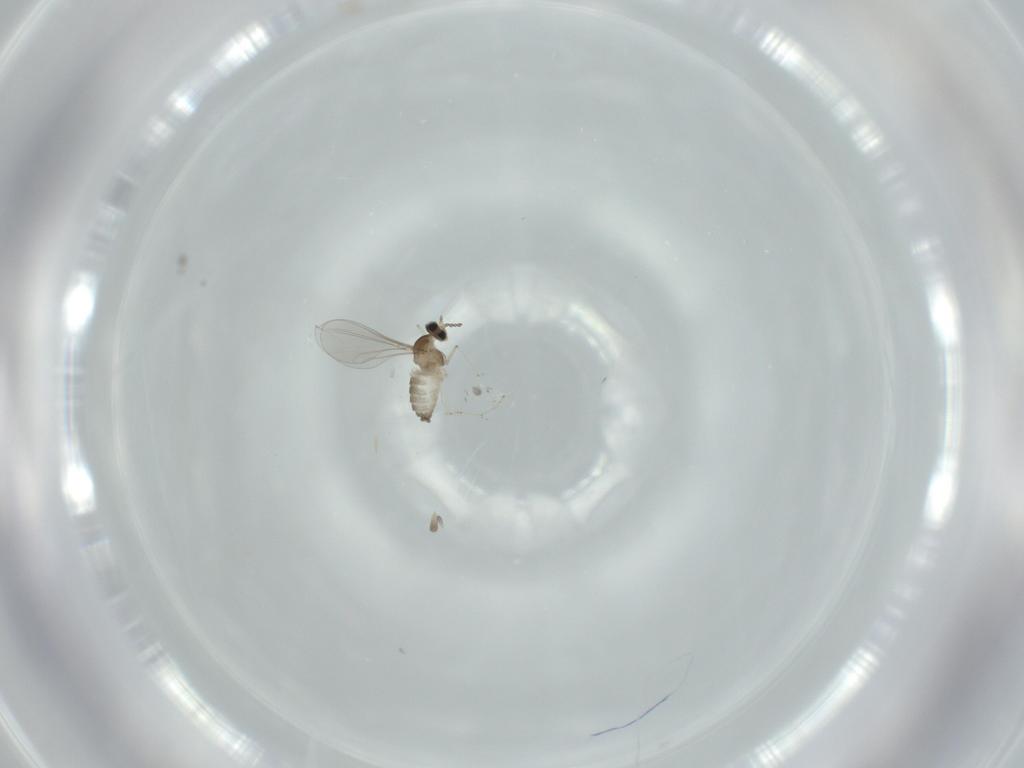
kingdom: Animalia
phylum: Arthropoda
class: Insecta
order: Diptera
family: Cecidomyiidae
